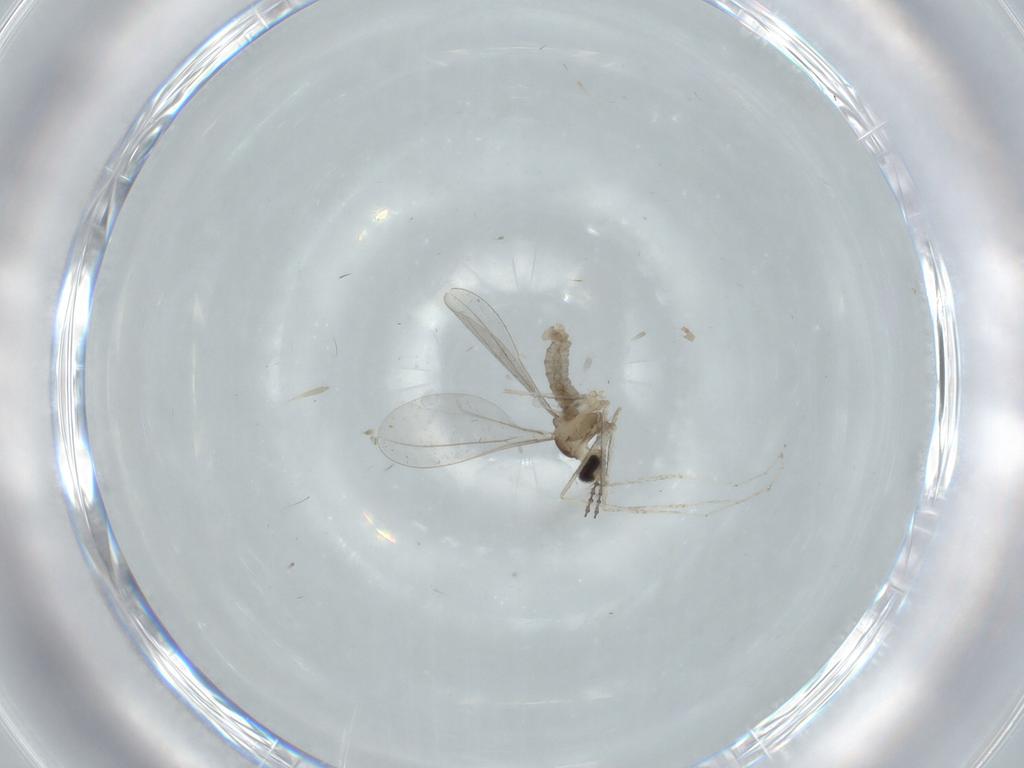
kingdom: Animalia
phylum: Arthropoda
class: Insecta
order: Diptera
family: Cecidomyiidae
